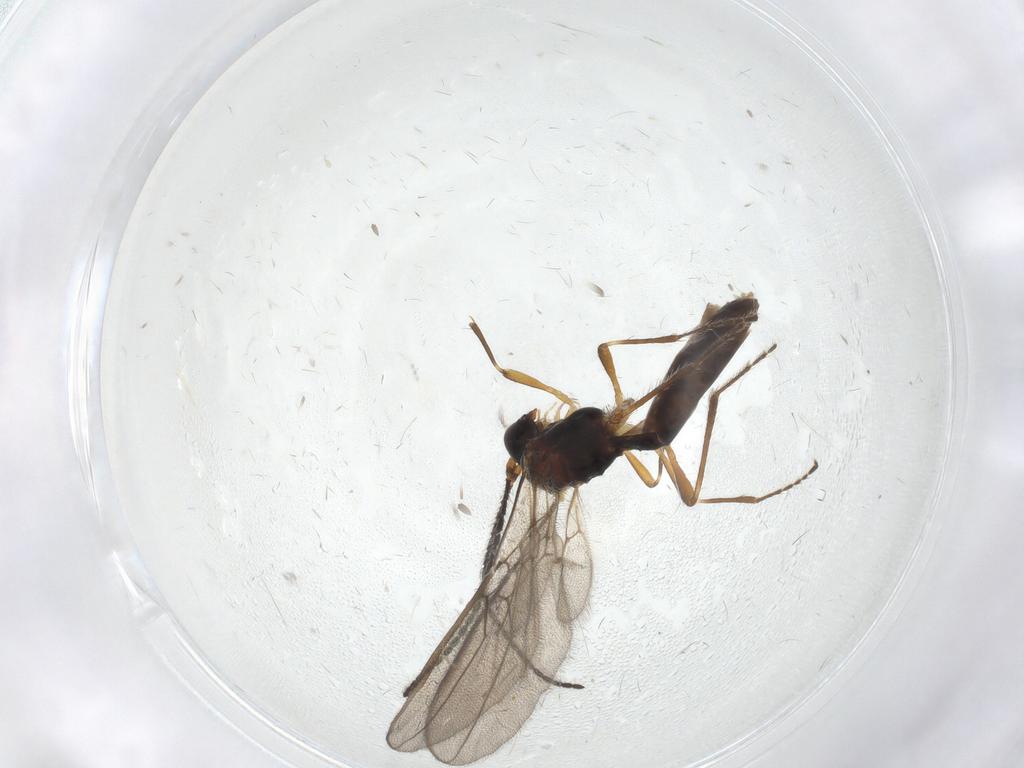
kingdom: Animalia
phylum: Arthropoda
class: Insecta
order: Hymenoptera
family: Braconidae
